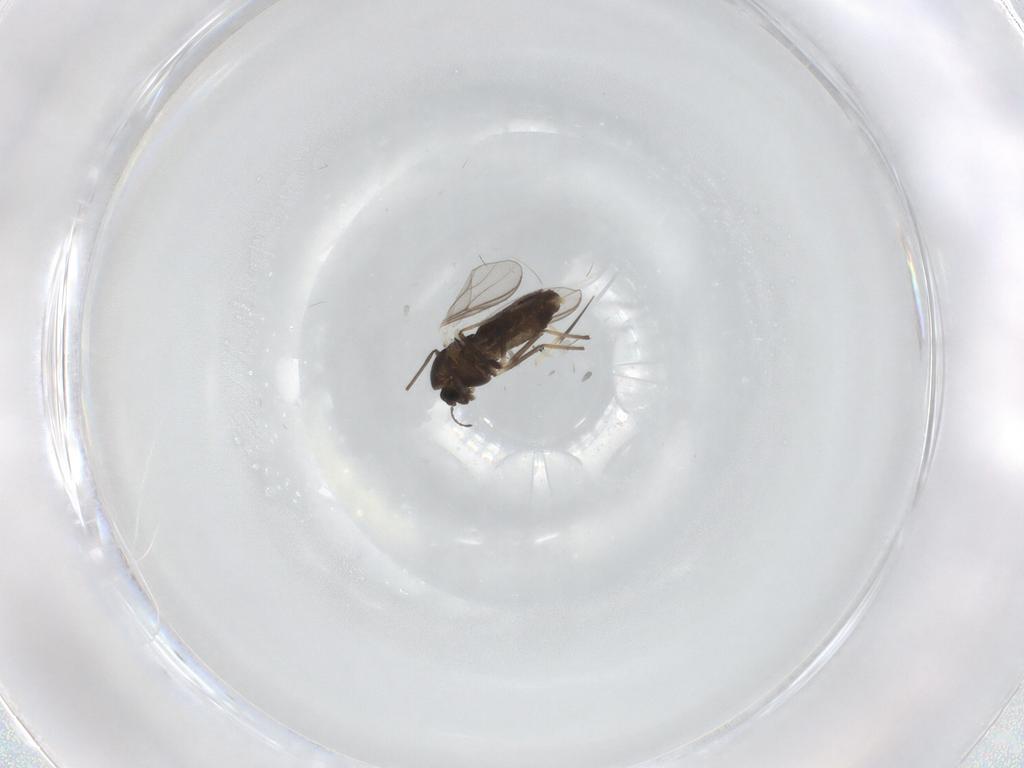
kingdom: Animalia
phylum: Arthropoda
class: Insecta
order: Diptera
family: Chironomidae
